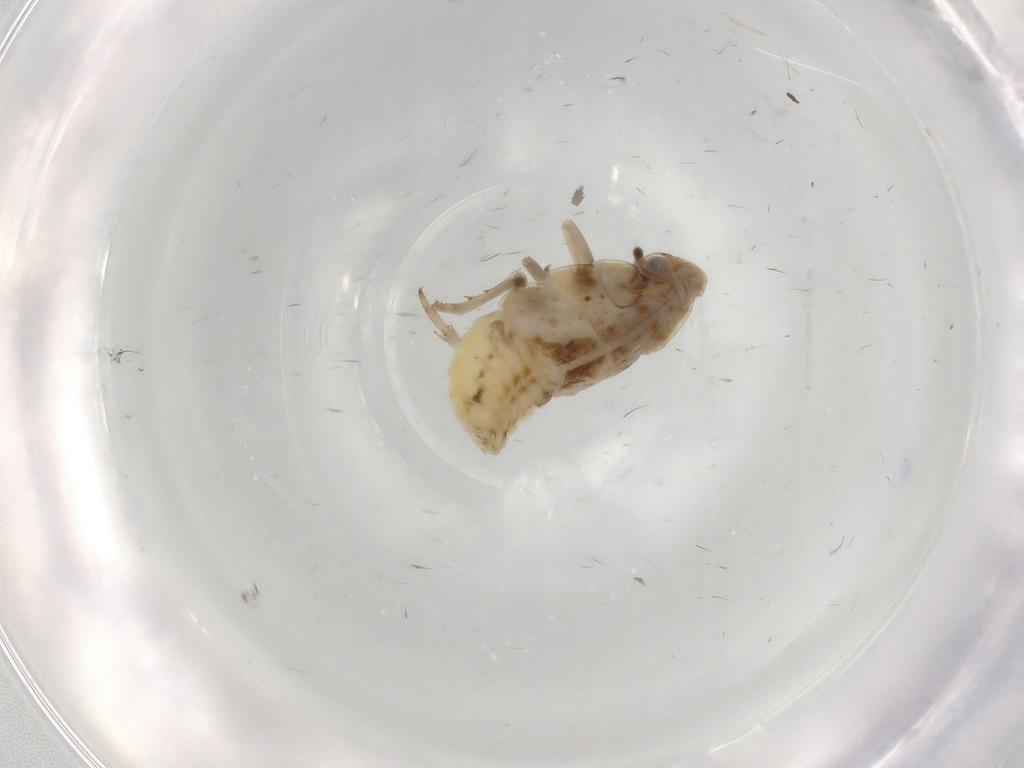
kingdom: Animalia
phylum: Arthropoda
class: Insecta
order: Hemiptera
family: Flatidae
